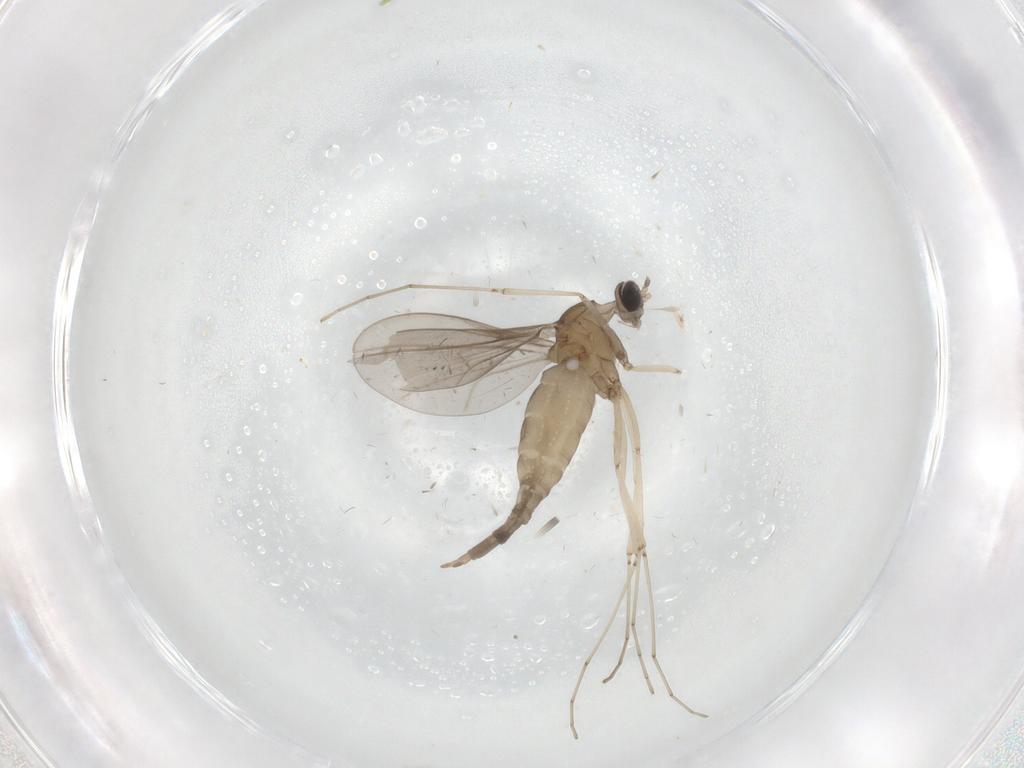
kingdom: Animalia
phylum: Arthropoda
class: Insecta
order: Diptera
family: Cecidomyiidae
